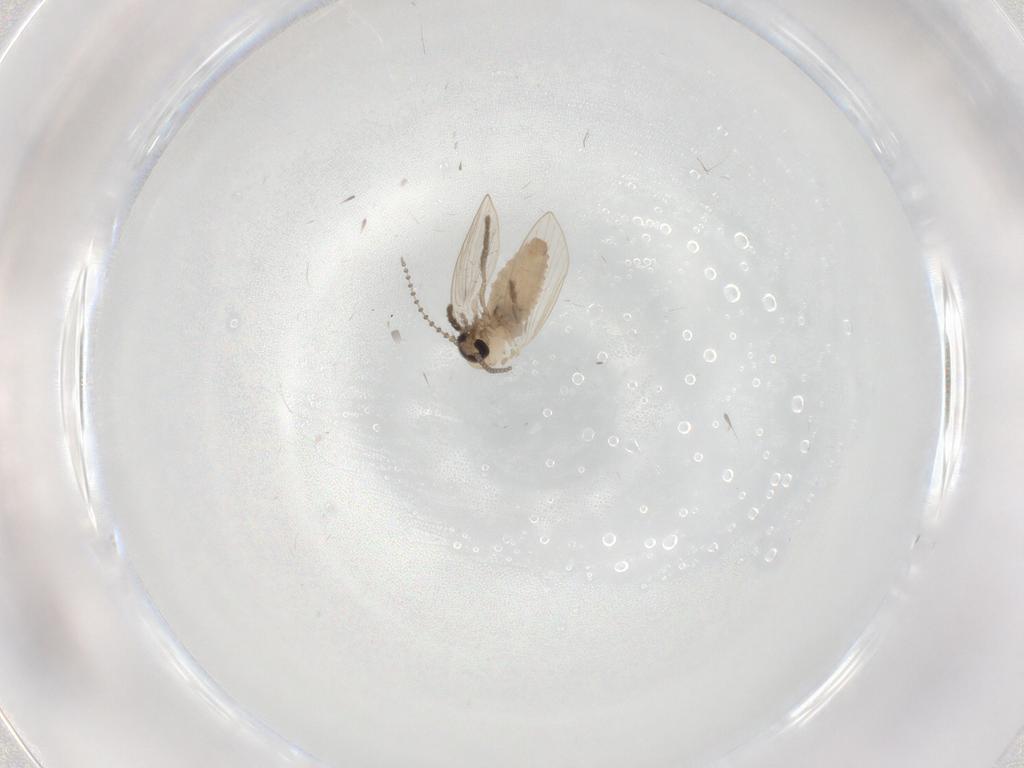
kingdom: Animalia
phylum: Arthropoda
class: Insecta
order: Diptera
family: Psychodidae
